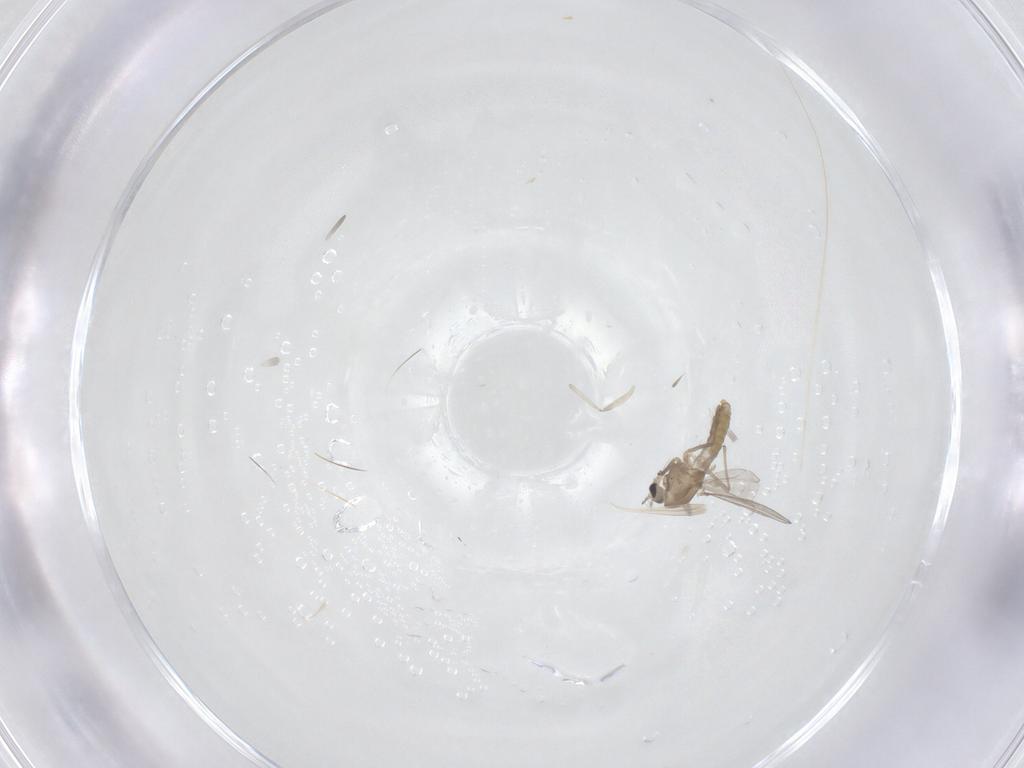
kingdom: Animalia
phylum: Arthropoda
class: Insecta
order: Diptera
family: Chironomidae
